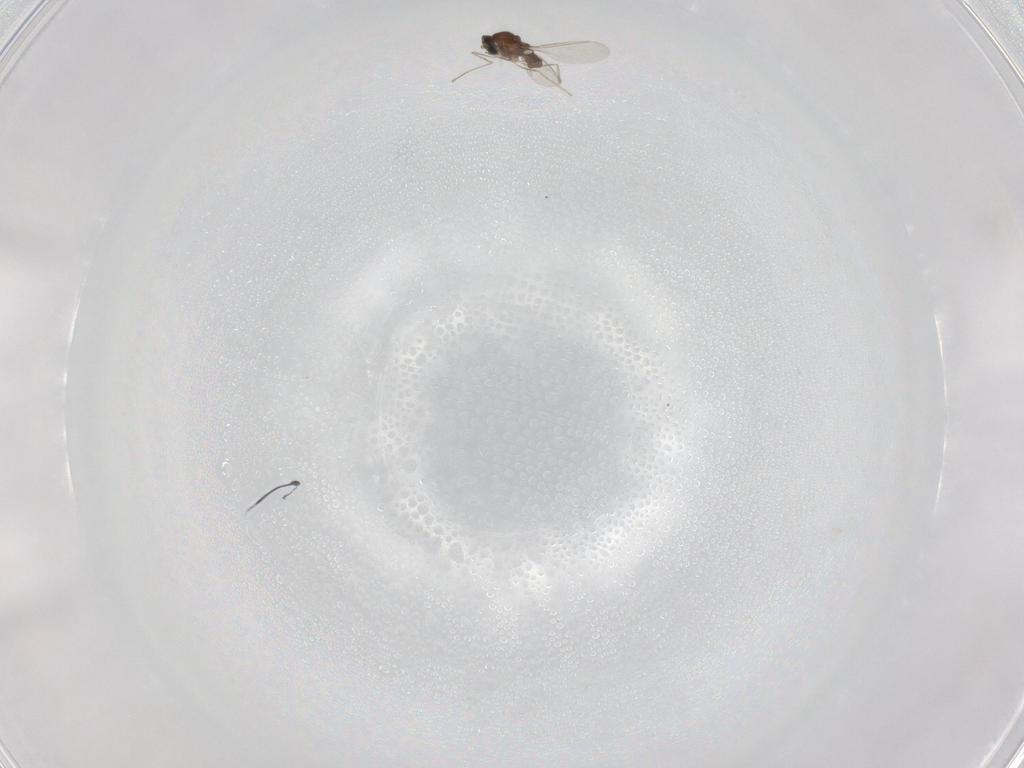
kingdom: Animalia
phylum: Arthropoda
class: Insecta
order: Diptera
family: Cecidomyiidae
